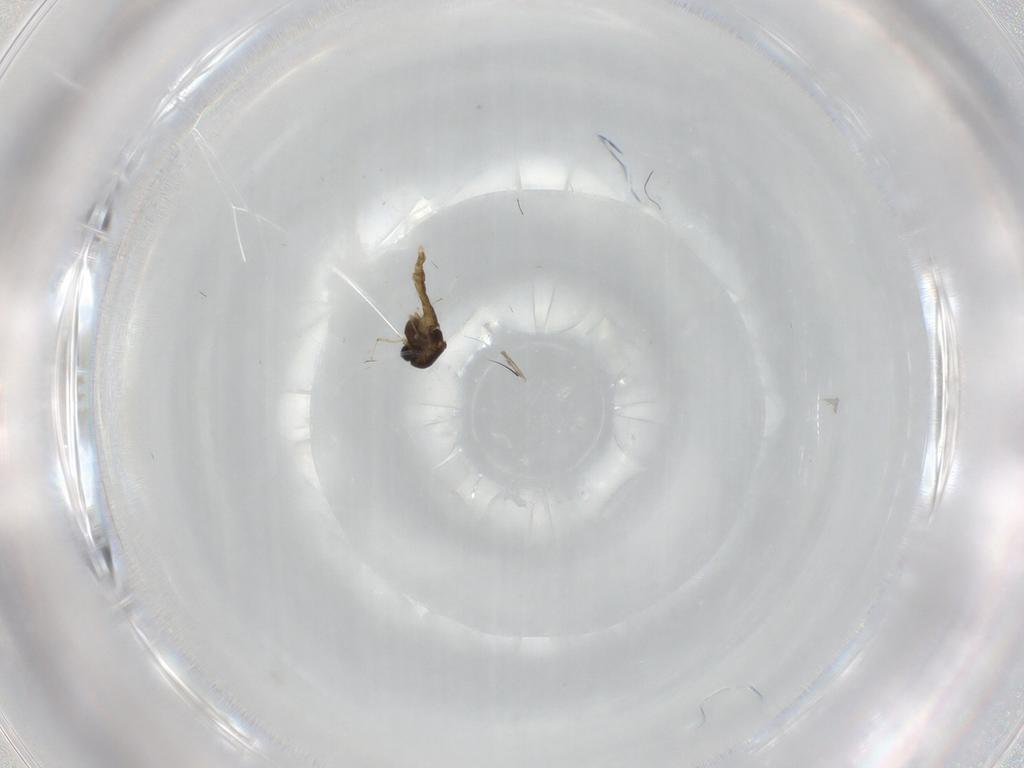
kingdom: Animalia
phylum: Arthropoda
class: Insecta
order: Diptera
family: Chironomidae
